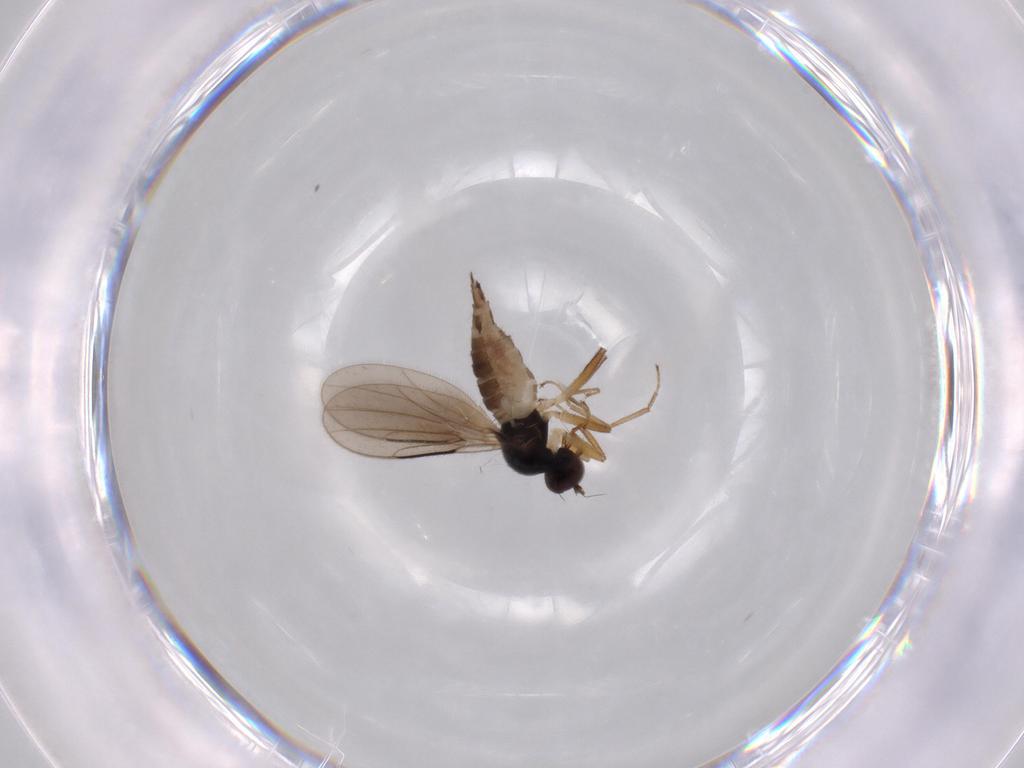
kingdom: Animalia
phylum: Arthropoda
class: Insecta
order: Diptera
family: Hybotidae
